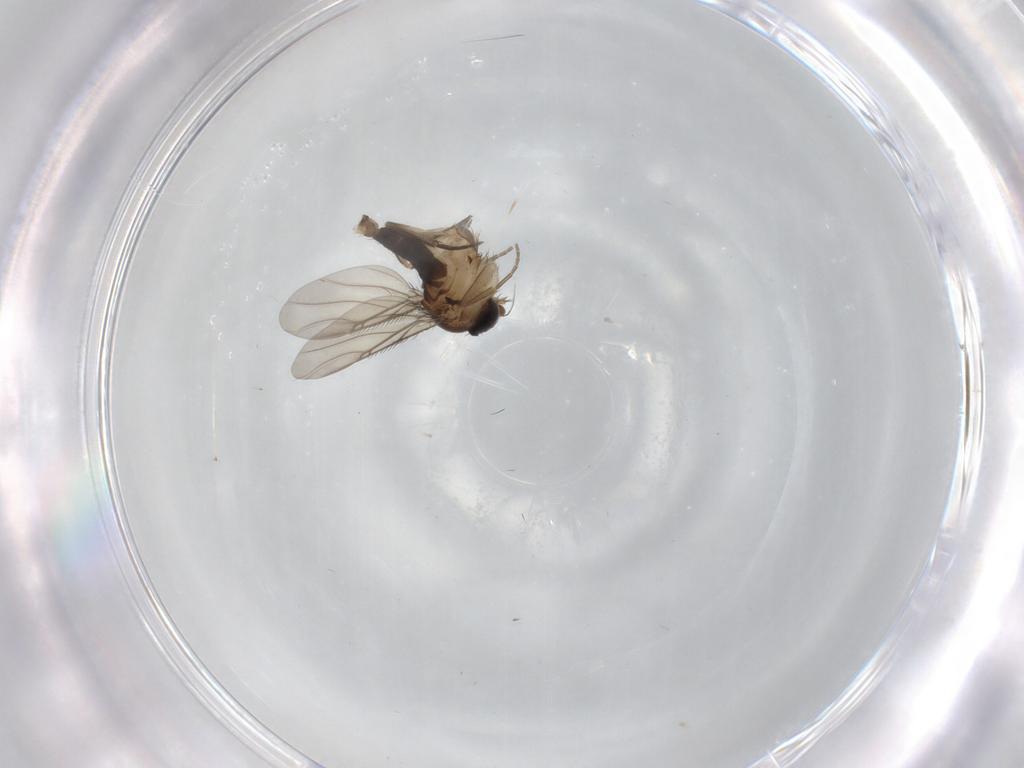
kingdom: Animalia
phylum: Arthropoda
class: Insecta
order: Diptera
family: Phoridae
